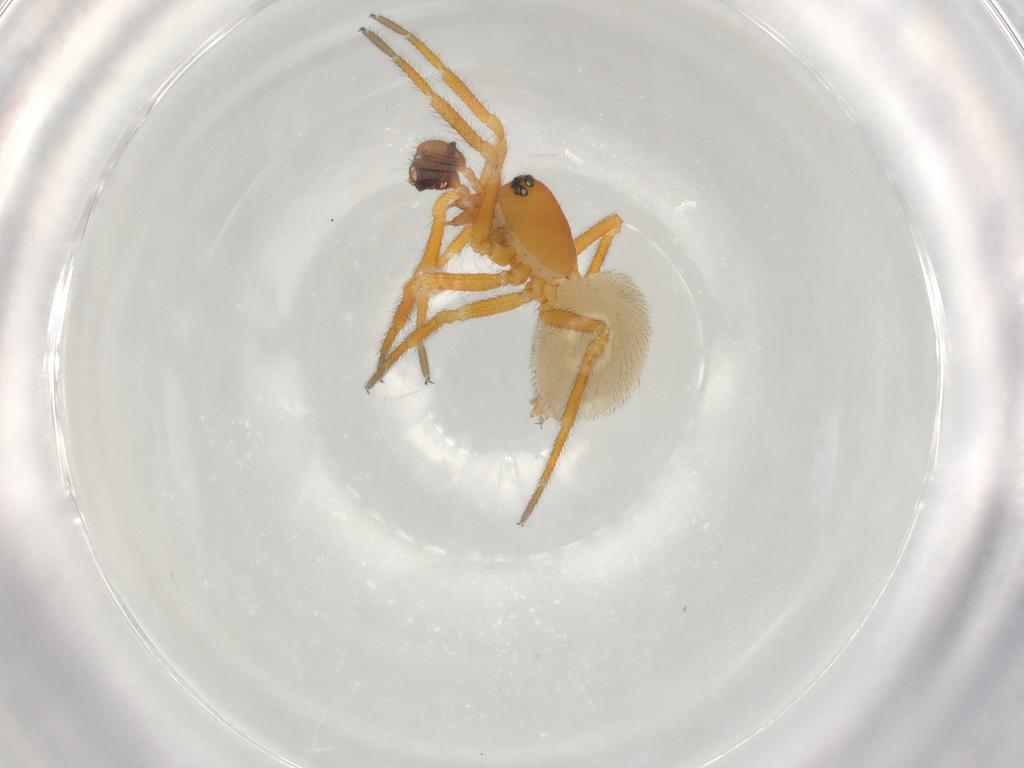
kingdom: Animalia
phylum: Arthropoda
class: Arachnida
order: Araneae
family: Linyphiidae
